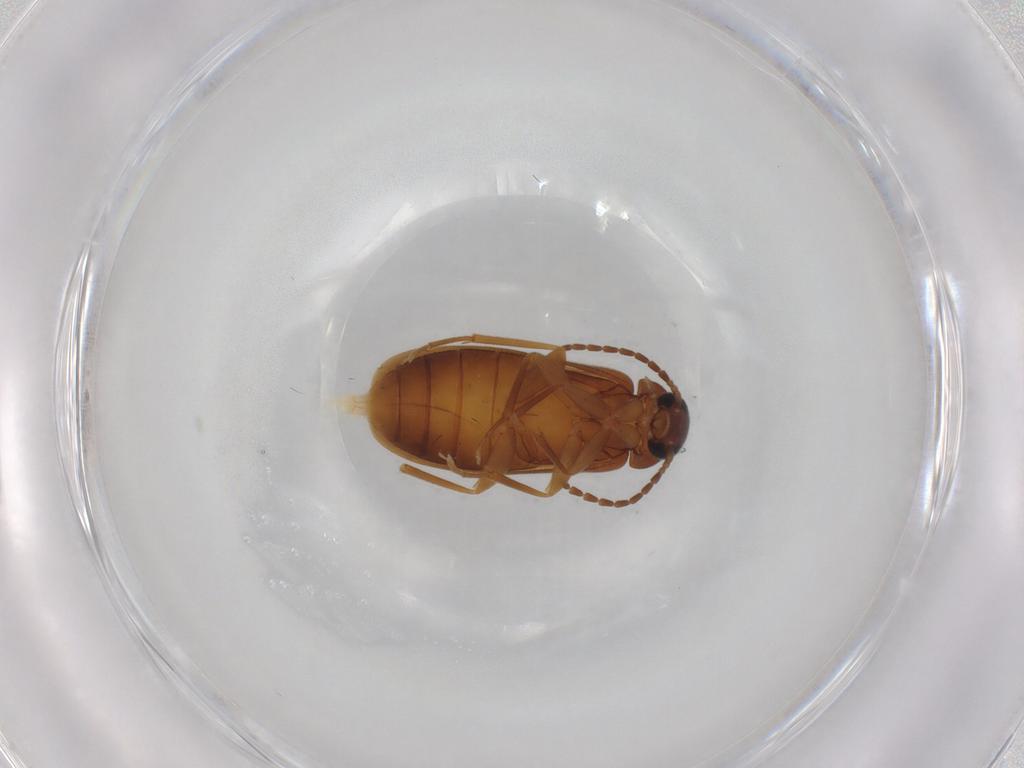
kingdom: Animalia
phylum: Arthropoda
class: Insecta
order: Coleoptera
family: Scraptiidae
